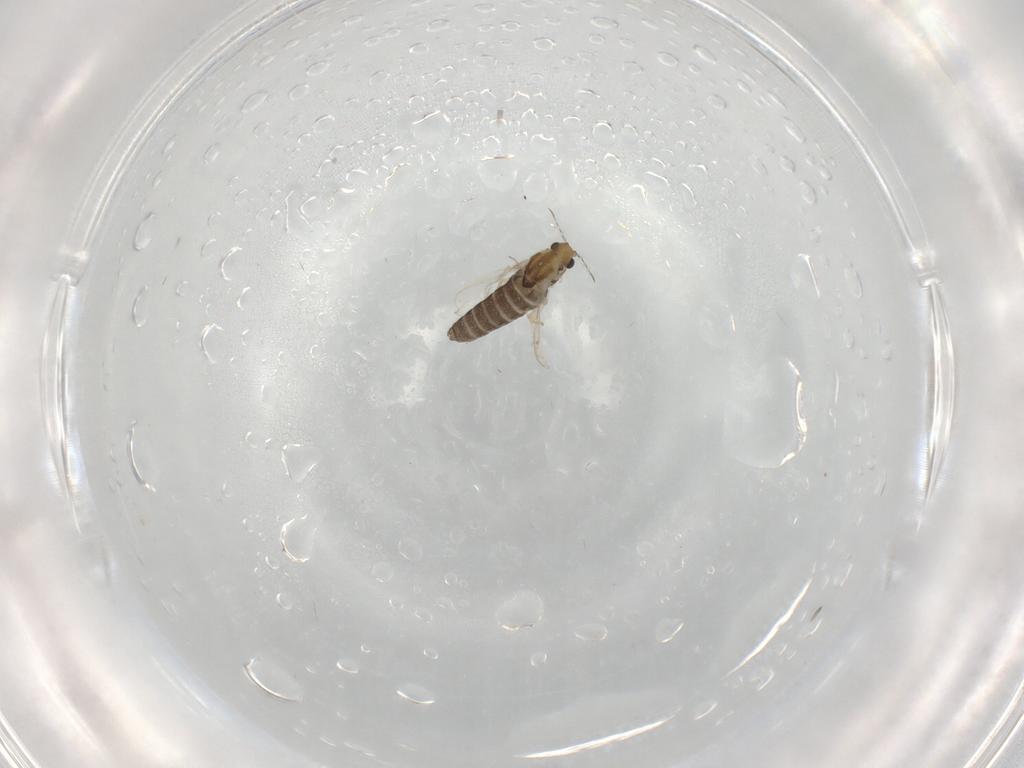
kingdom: Animalia
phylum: Arthropoda
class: Insecta
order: Diptera
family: Chironomidae
